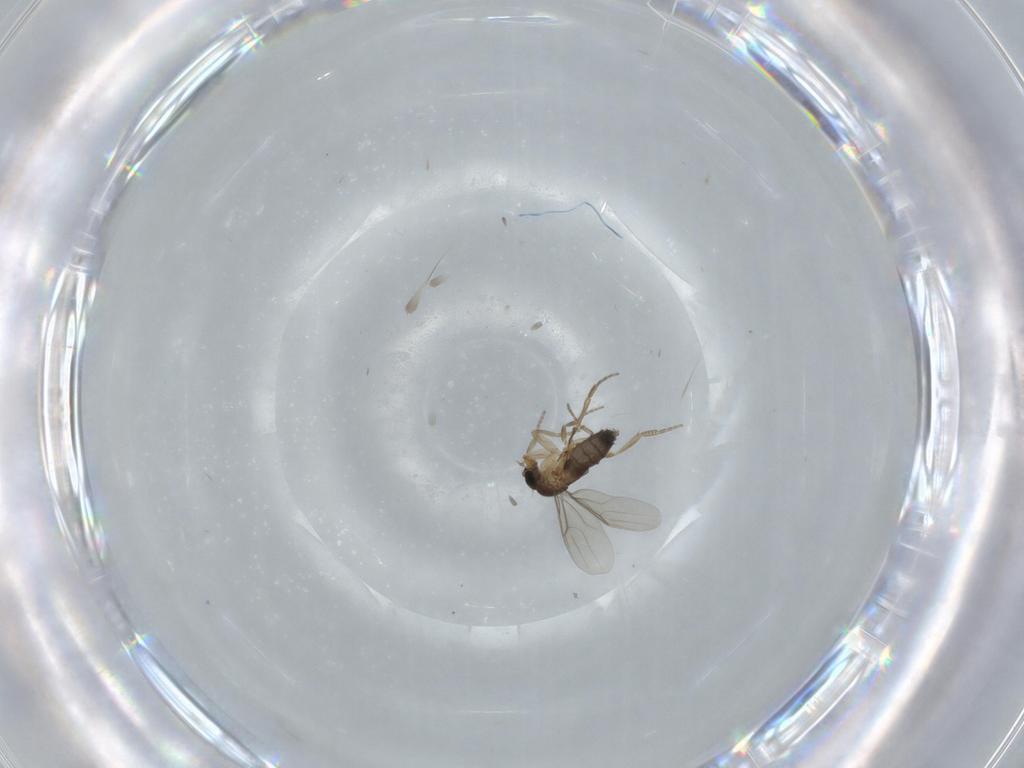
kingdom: Animalia
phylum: Arthropoda
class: Insecta
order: Diptera
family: Phoridae
